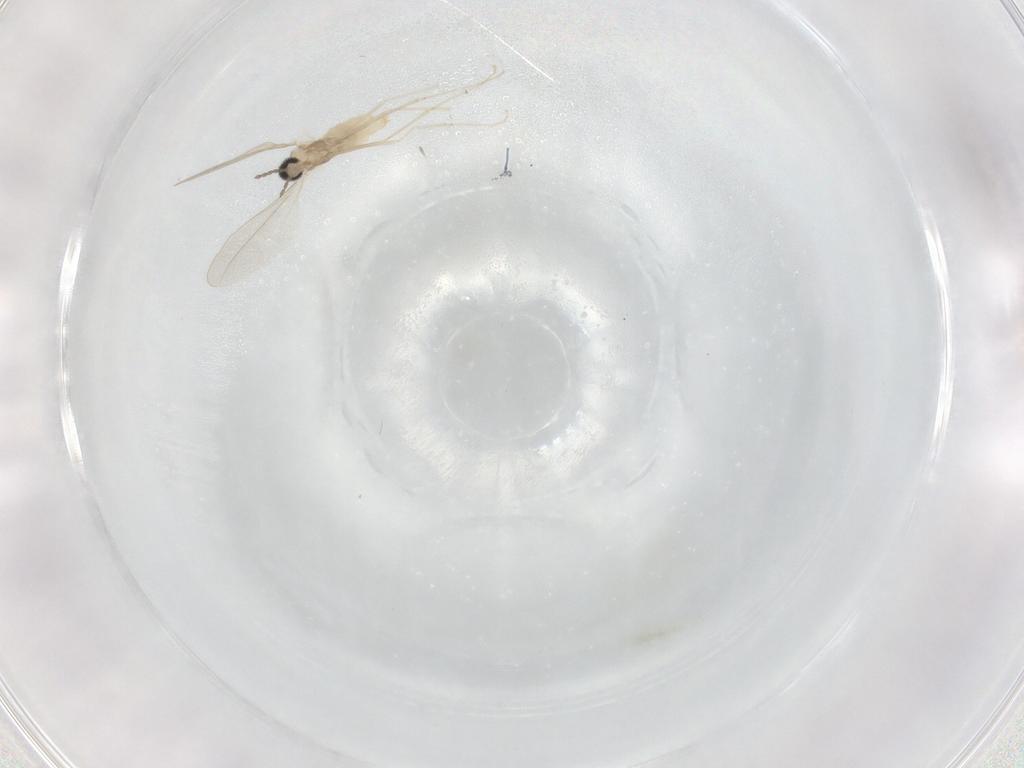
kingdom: Animalia
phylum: Arthropoda
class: Insecta
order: Diptera
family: Cecidomyiidae
